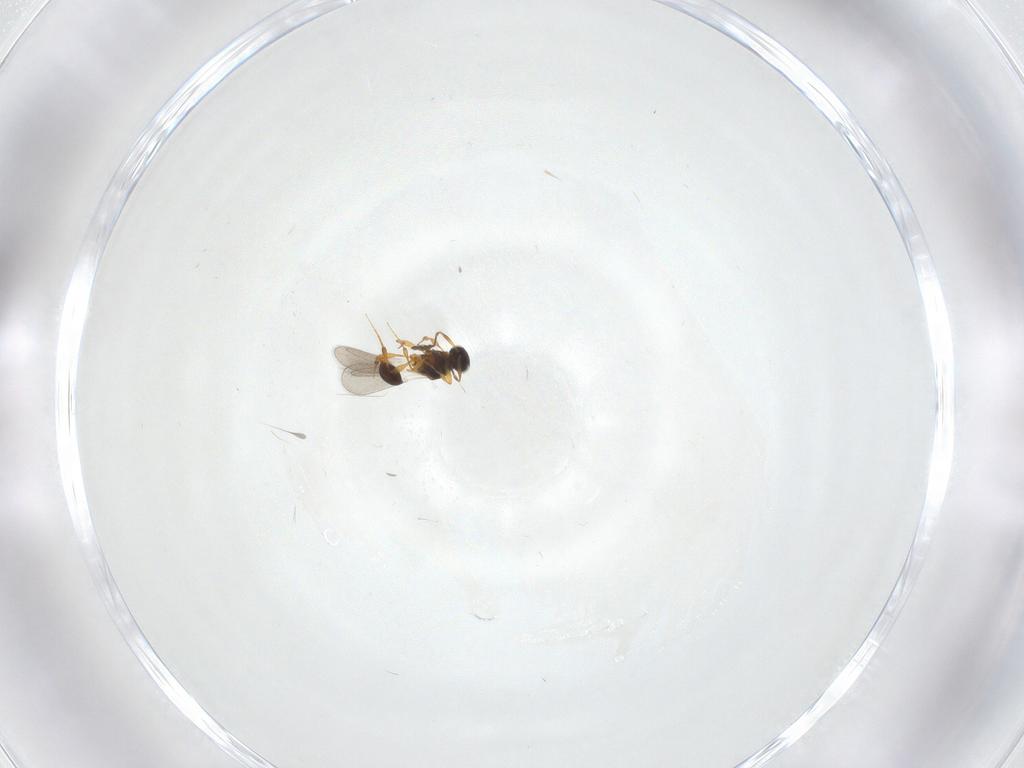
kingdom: Animalia
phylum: Arthropoda
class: Insecta
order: Hymenoptera
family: Platygastridae
